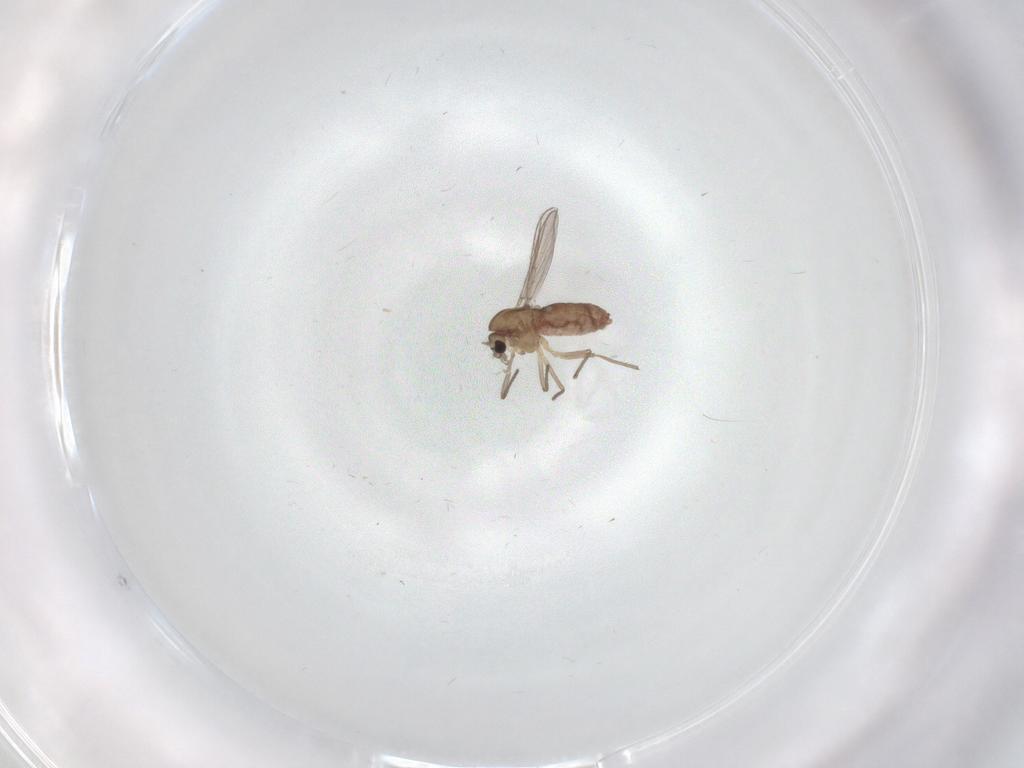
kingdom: Animalia
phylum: Arthropoda
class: Insecta
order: Diptera
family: Chironomidae
